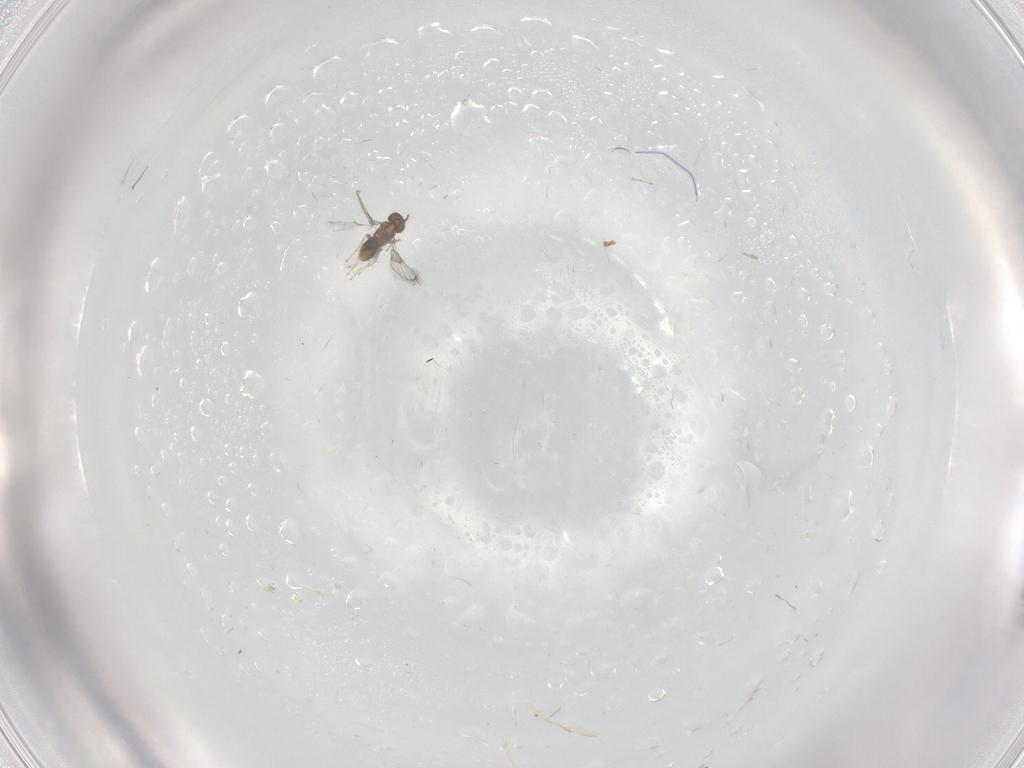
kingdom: Animalia
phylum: Arthropoda
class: Insecta
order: Hymenoptera
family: Trichogrammatidae
